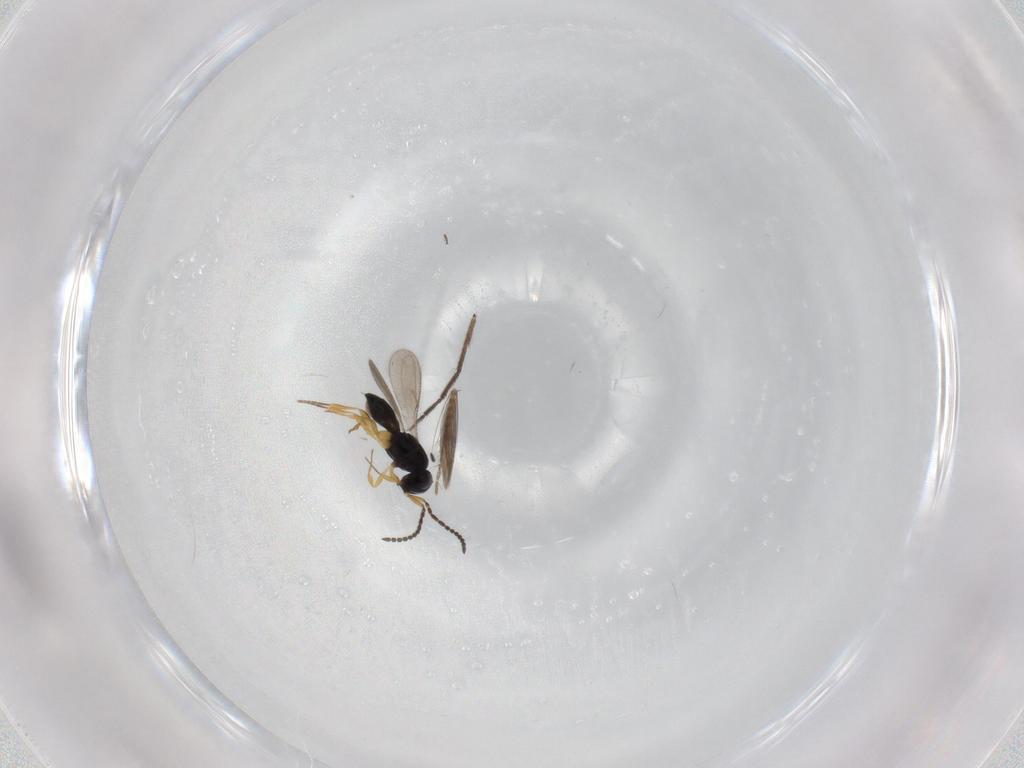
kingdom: Animalia
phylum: Arthropoda
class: Insecta
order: Hymenoptera
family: Scelionidae
